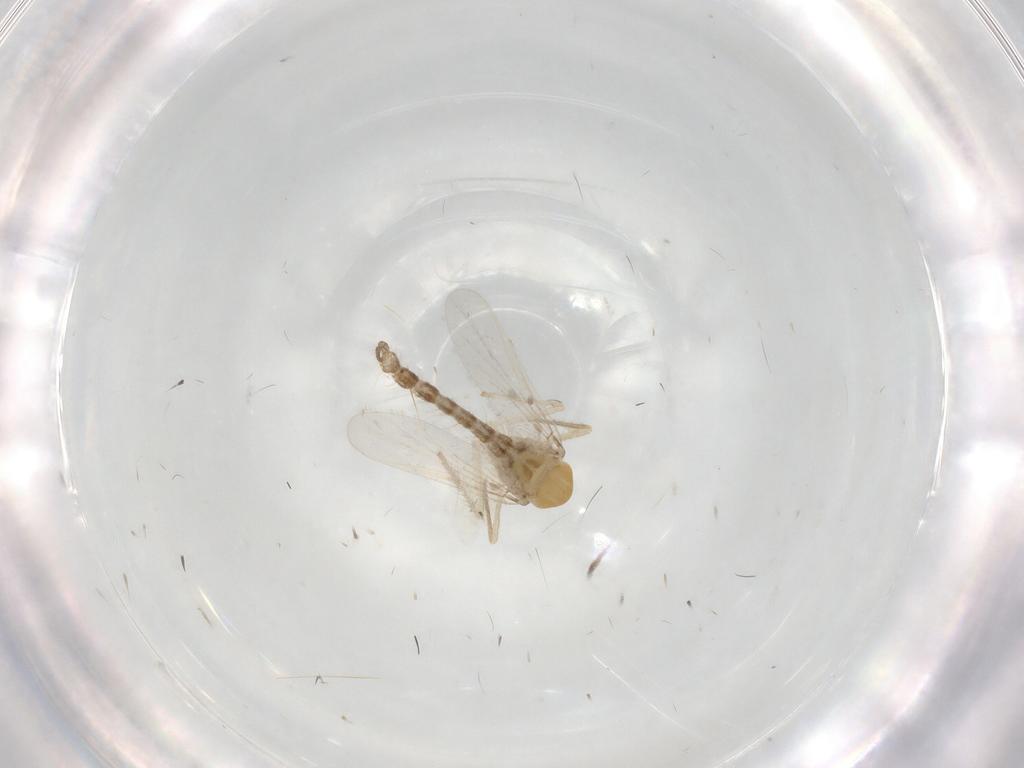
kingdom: Animalia
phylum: Arthropoda
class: Insecta
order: Diptera
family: Chironomidae
